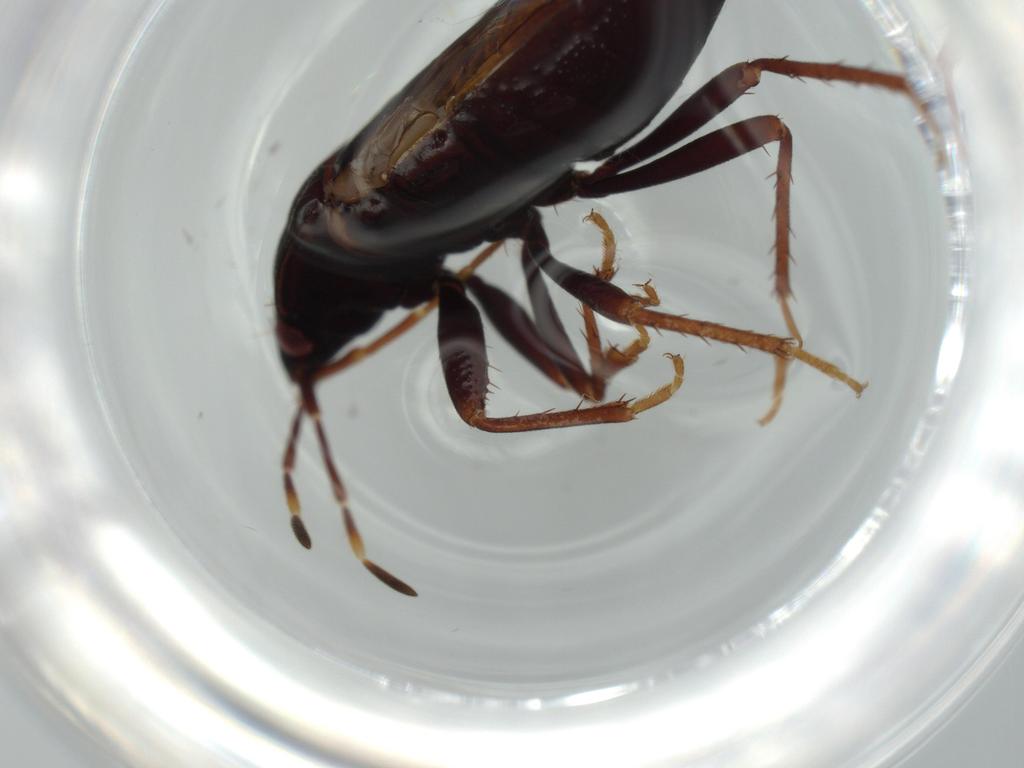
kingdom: Animalia
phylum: Arthropoda
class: Insecta
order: Hemiptera
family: Rhyparochromidae
